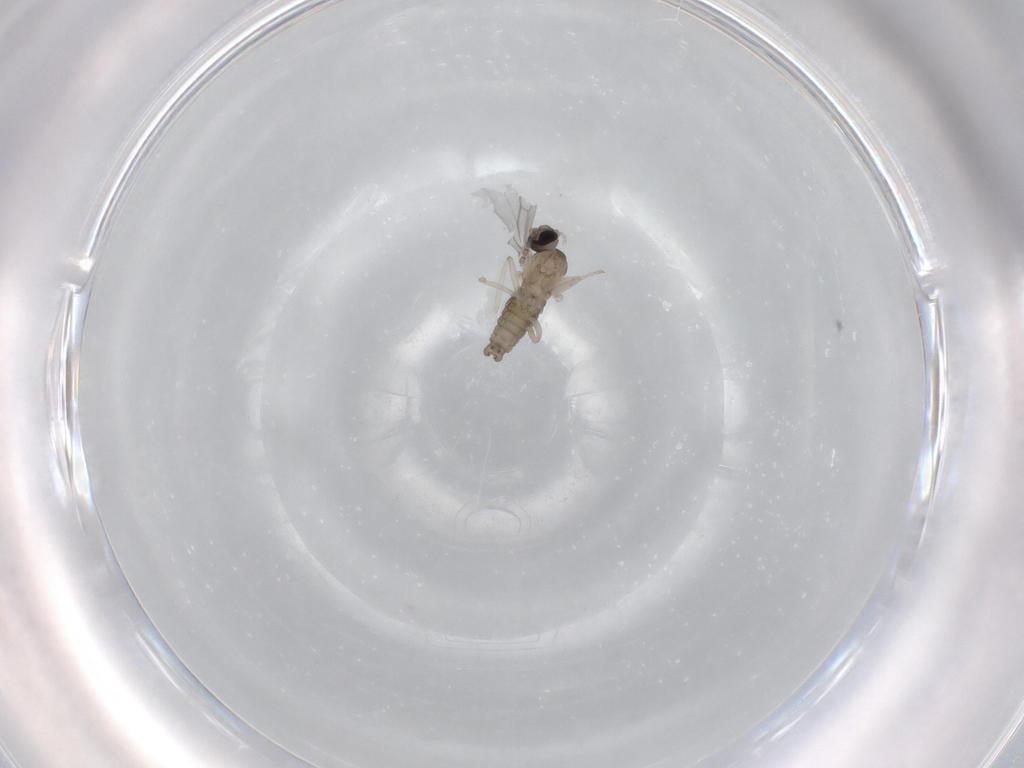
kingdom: Animalia
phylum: Arthropoda
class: Insecta
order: Diptera
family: Cecidomyiidae
